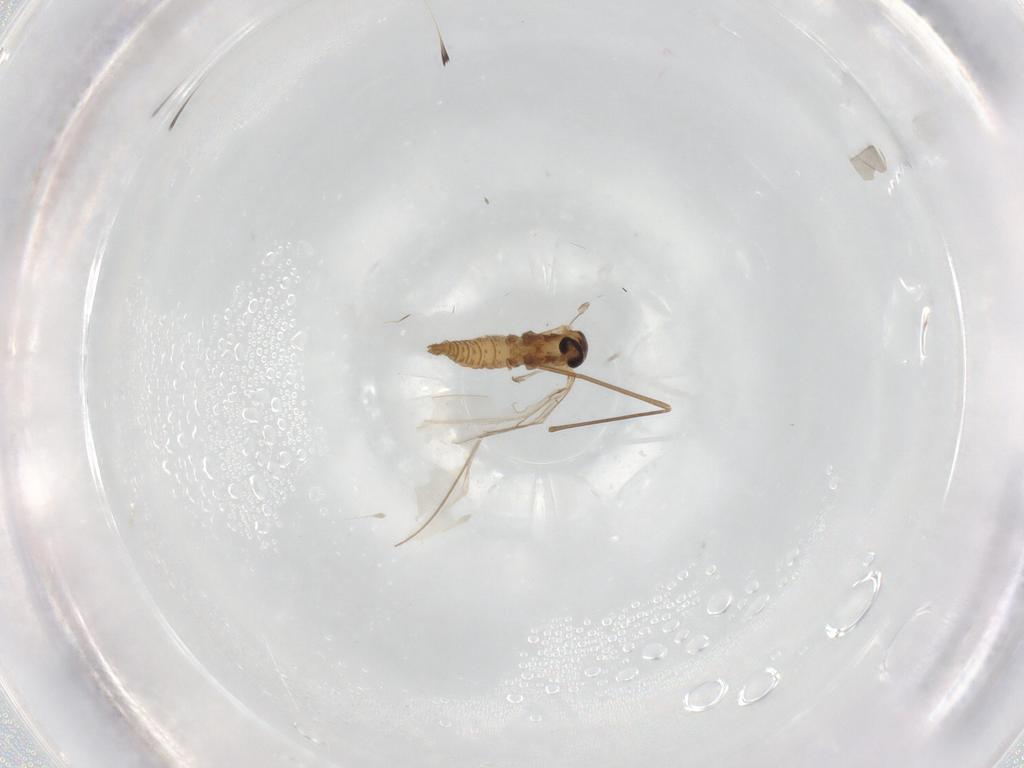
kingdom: Animalia
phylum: Arthropoda
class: Insecta
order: Diptera
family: Cecidomyiidae
